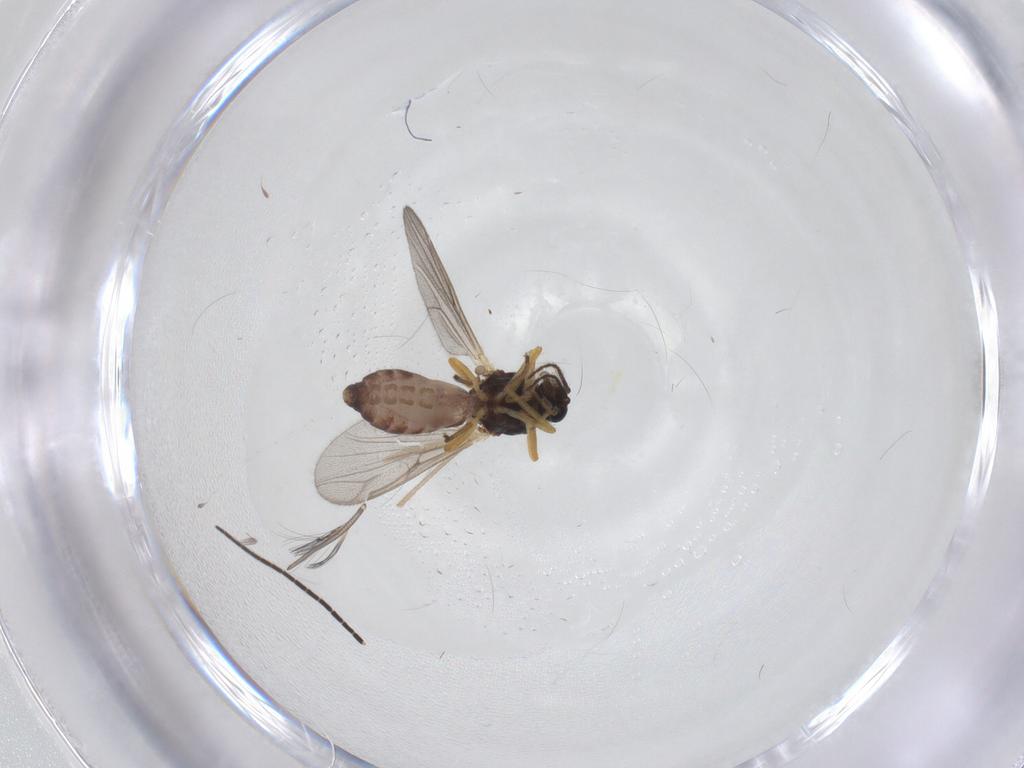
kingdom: Animalia
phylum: Arthropoda
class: Insecta
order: Diptera
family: Ceratopogonidae
